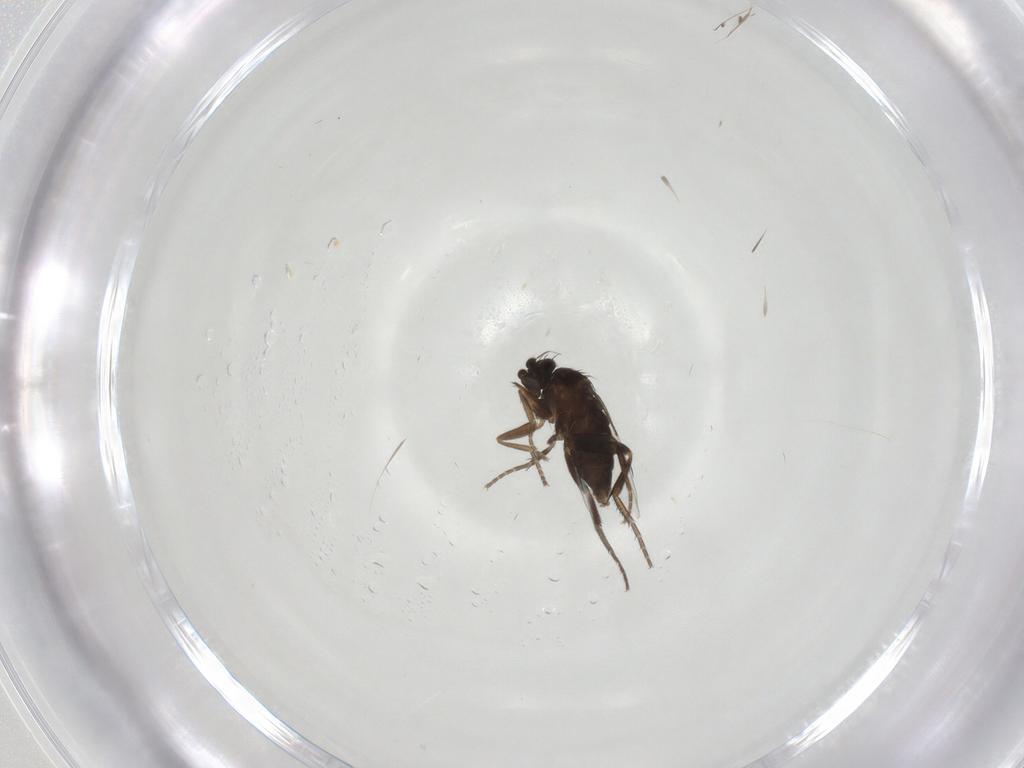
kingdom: Animalia
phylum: Arthropoda
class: Insecta
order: Diptera
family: Phoridae
